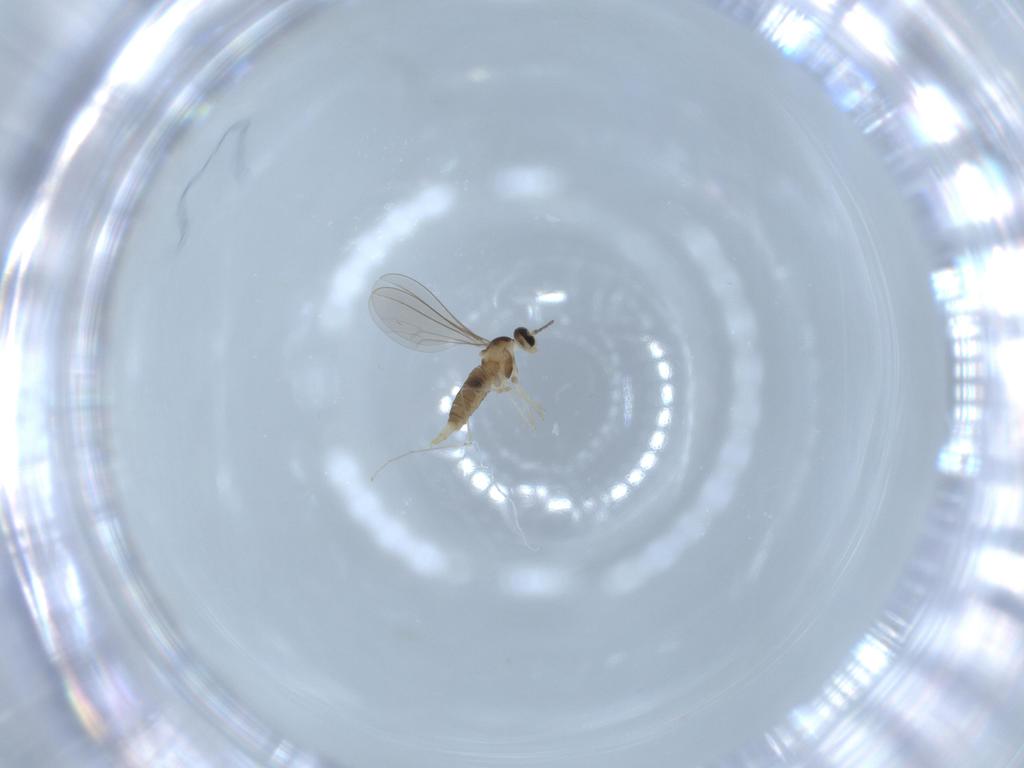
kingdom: Animalia
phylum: Arthropoda
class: Insecta
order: Diptera
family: Cecidomyiidae
